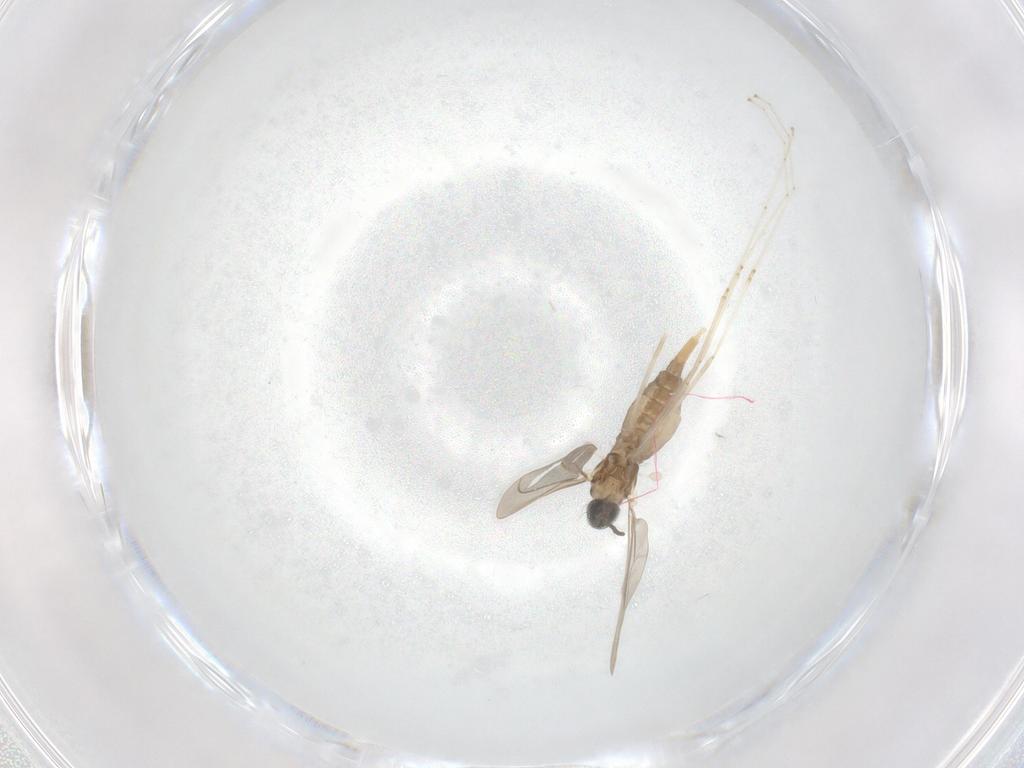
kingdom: Animalia
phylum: Arthropoda
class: Insecta
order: Diptera
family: Cecidomyiidae
